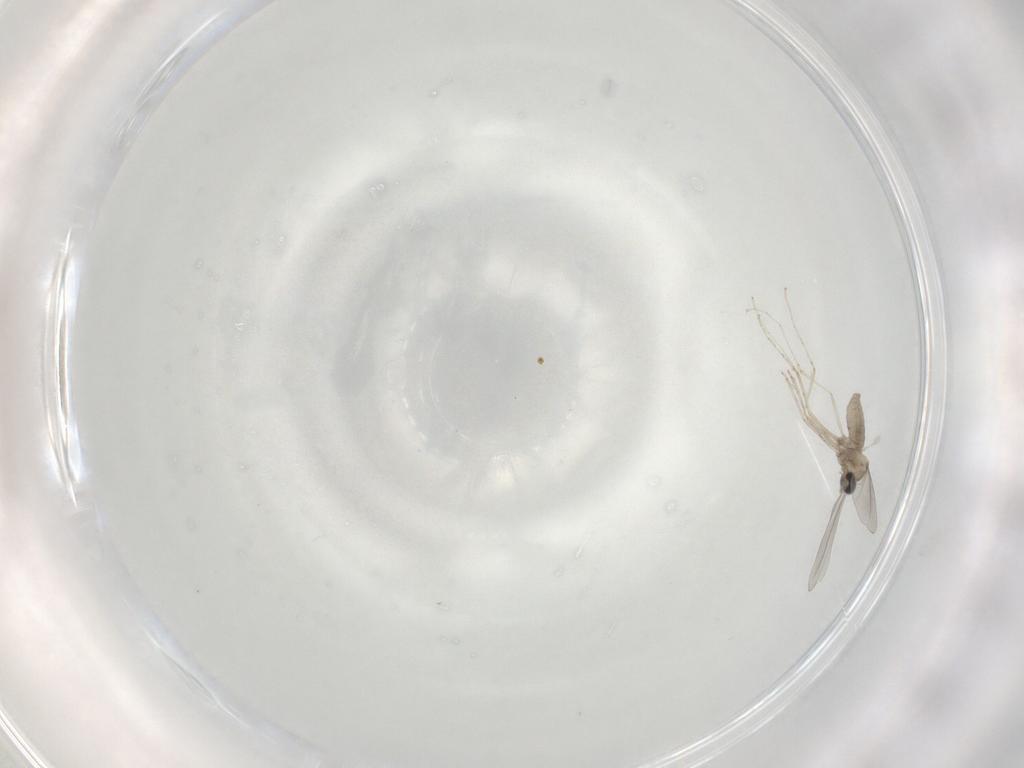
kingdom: Animalia
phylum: Arthropoda
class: Insecta
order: Diptera
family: Cecidomyiidae
